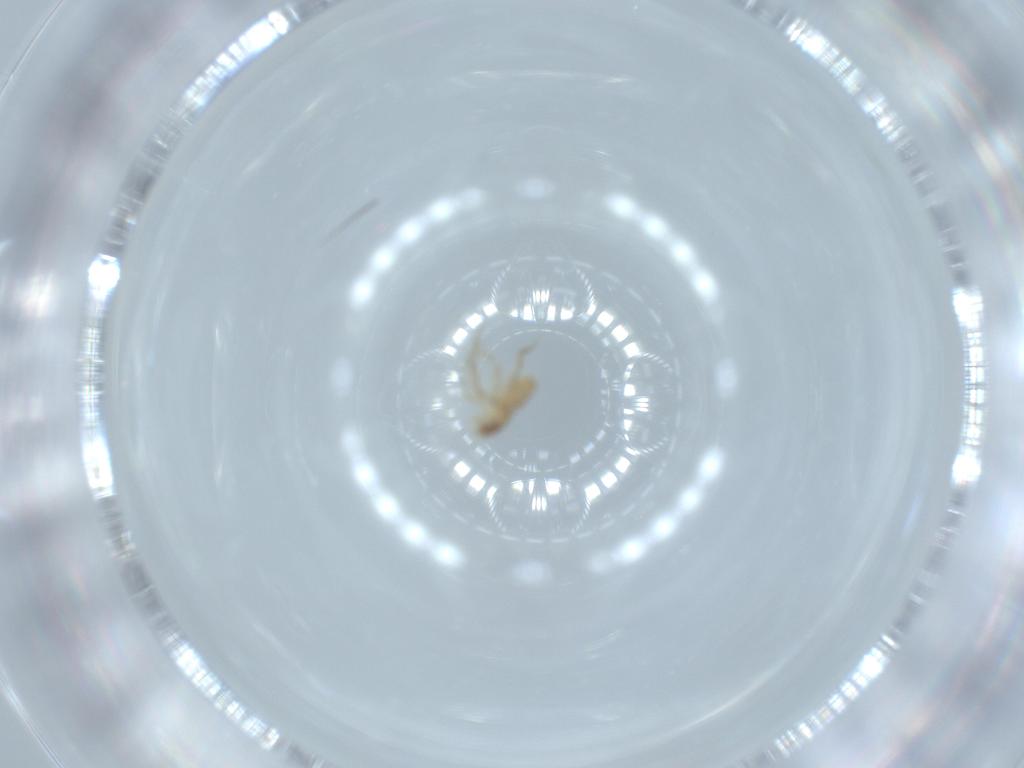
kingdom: Animalia
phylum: Arthropoda
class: Insecta
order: Diptera
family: Phoridae
